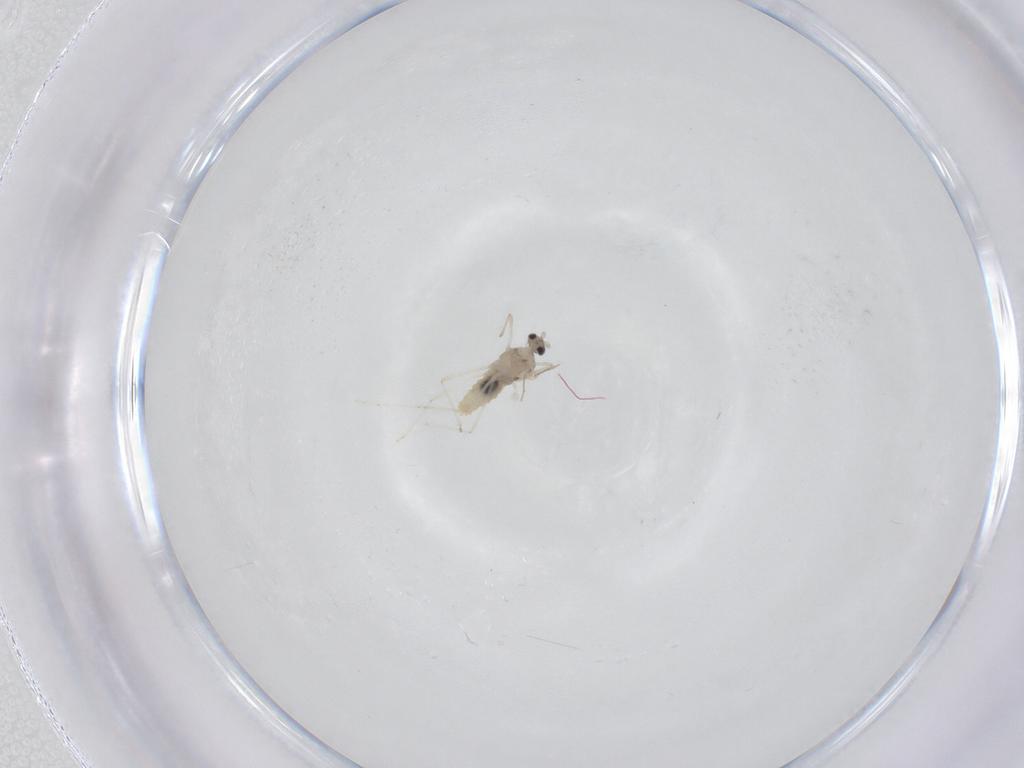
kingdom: Animalia
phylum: Arthropoda
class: Insecta
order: Diptera
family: Cecidomyiidae
